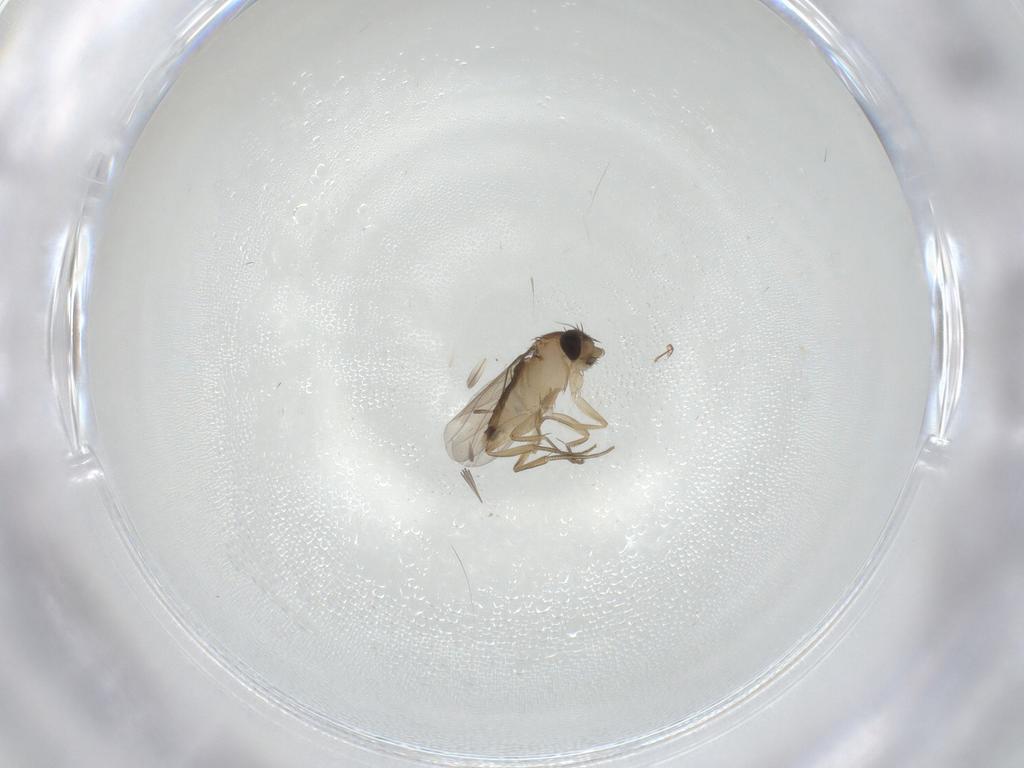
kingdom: Animalia
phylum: Arthropoda
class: Insecta
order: Diptera
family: Phoridae
